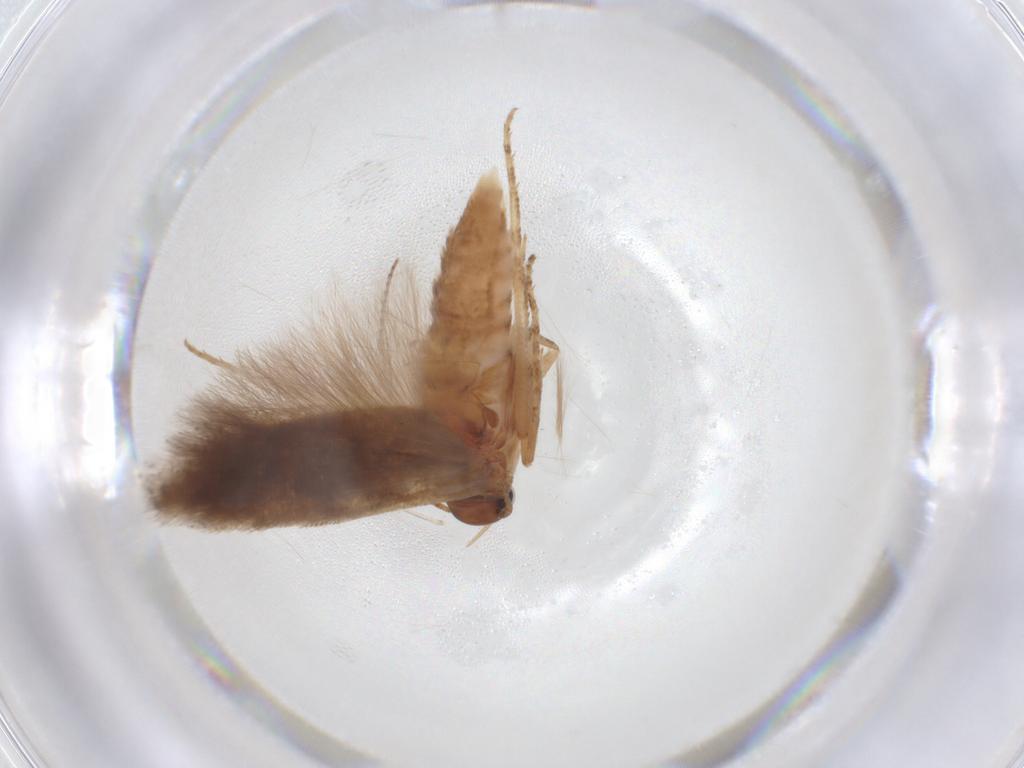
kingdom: Animalia
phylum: Arthropoda
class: Insecta
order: Lepidoptera
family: Gelechiidae
